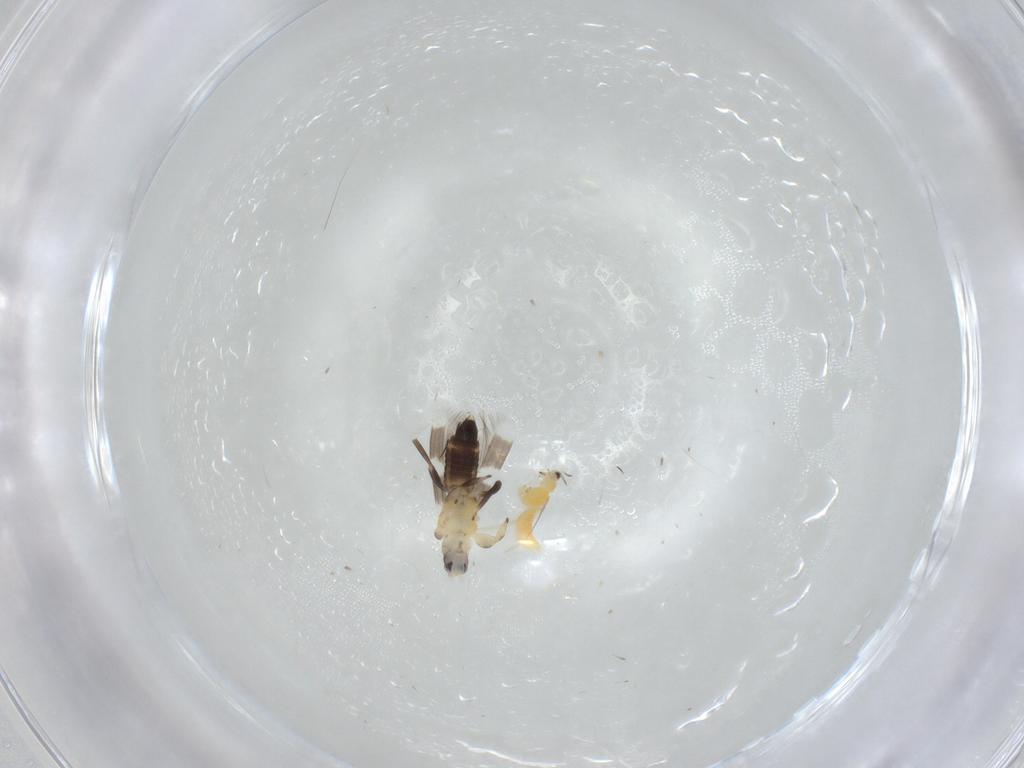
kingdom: Animalia
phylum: Arthropoda
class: Insecta
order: Thysanoptera
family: Thripidae
